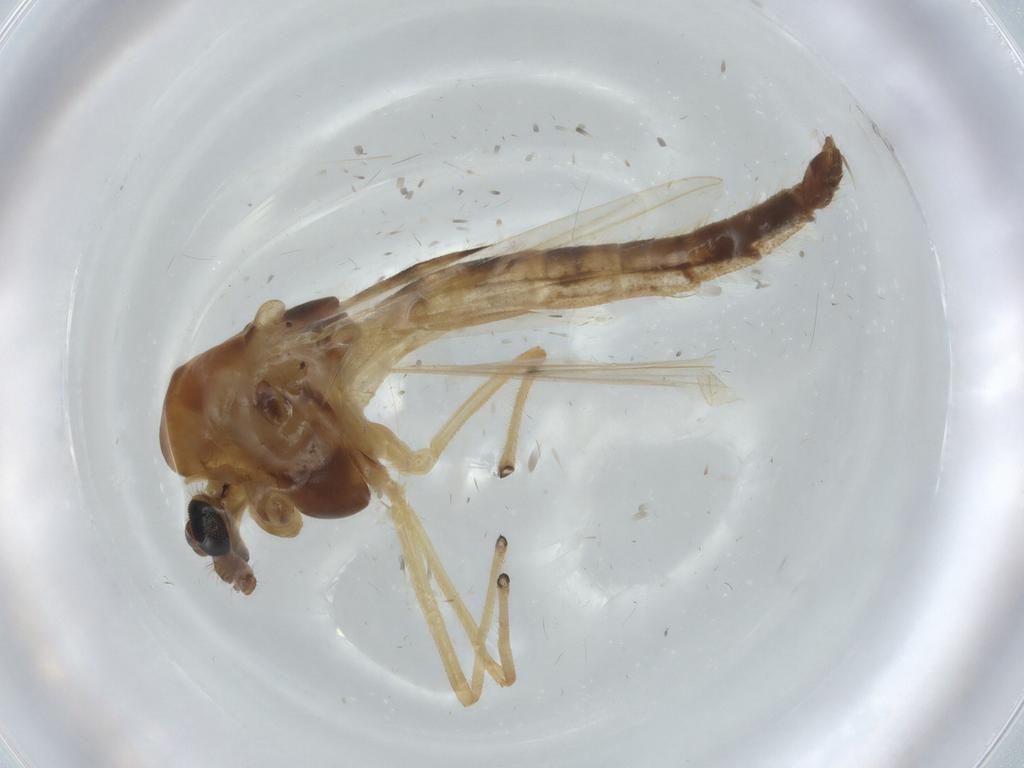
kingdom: Animalia
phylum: Arthropoda
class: Insecta
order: Diptera
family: Chironomidae
